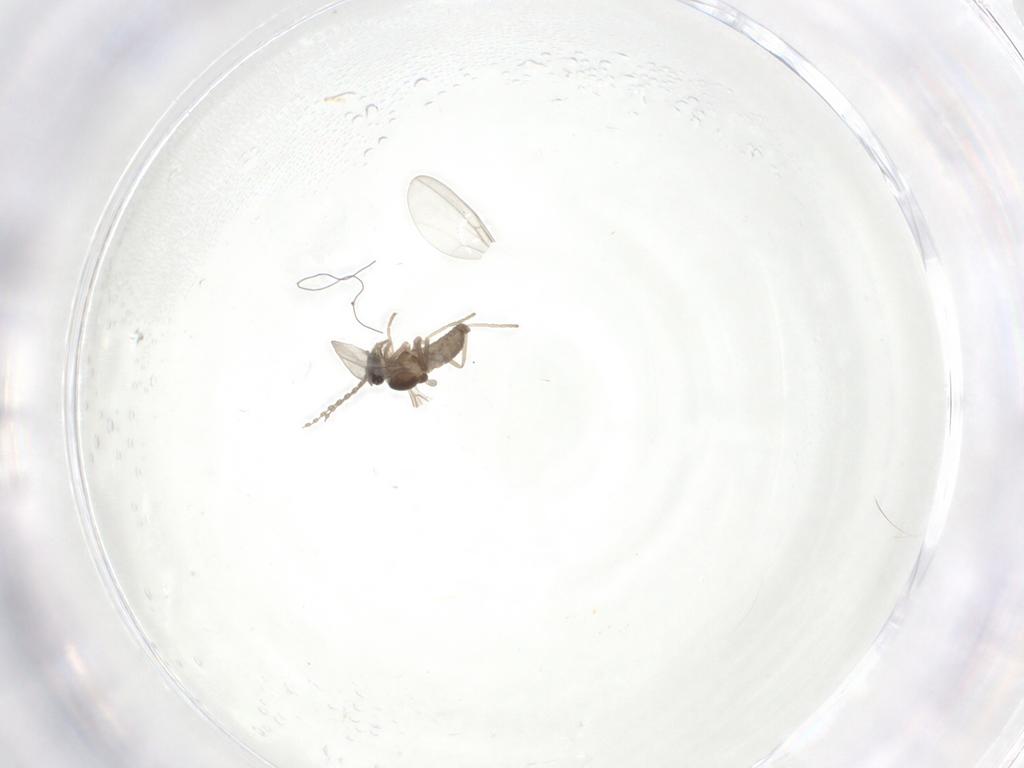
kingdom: Animalia
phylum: Arthropoda
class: Insecta
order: Diptera
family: Cecidomyiidae
